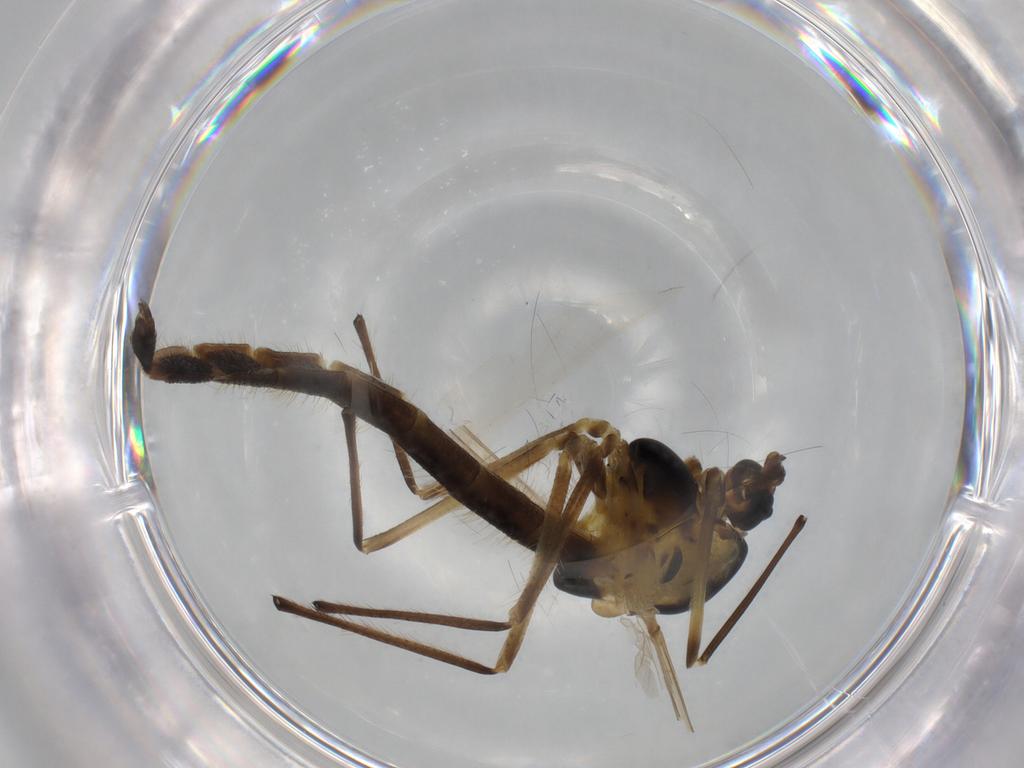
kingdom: Animalia
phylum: Arthropoda
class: Insecta
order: Diptera
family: Chironomidae
